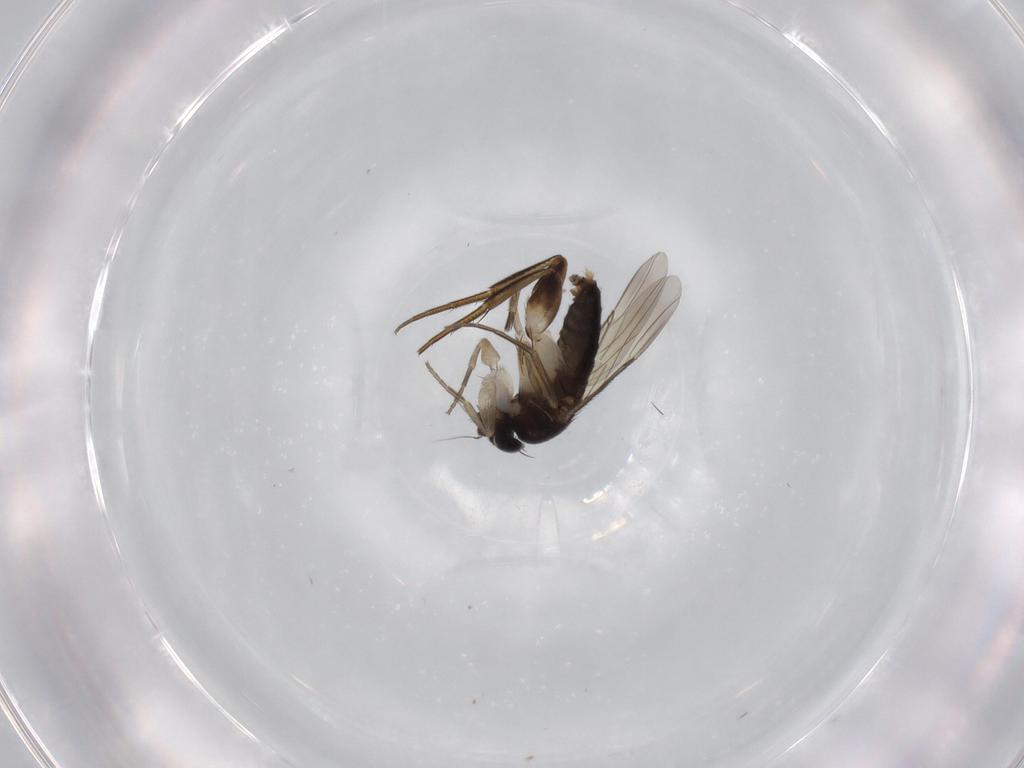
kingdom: Animalia
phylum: Arthropoda
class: Insecta
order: Diptera
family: Phoridae
